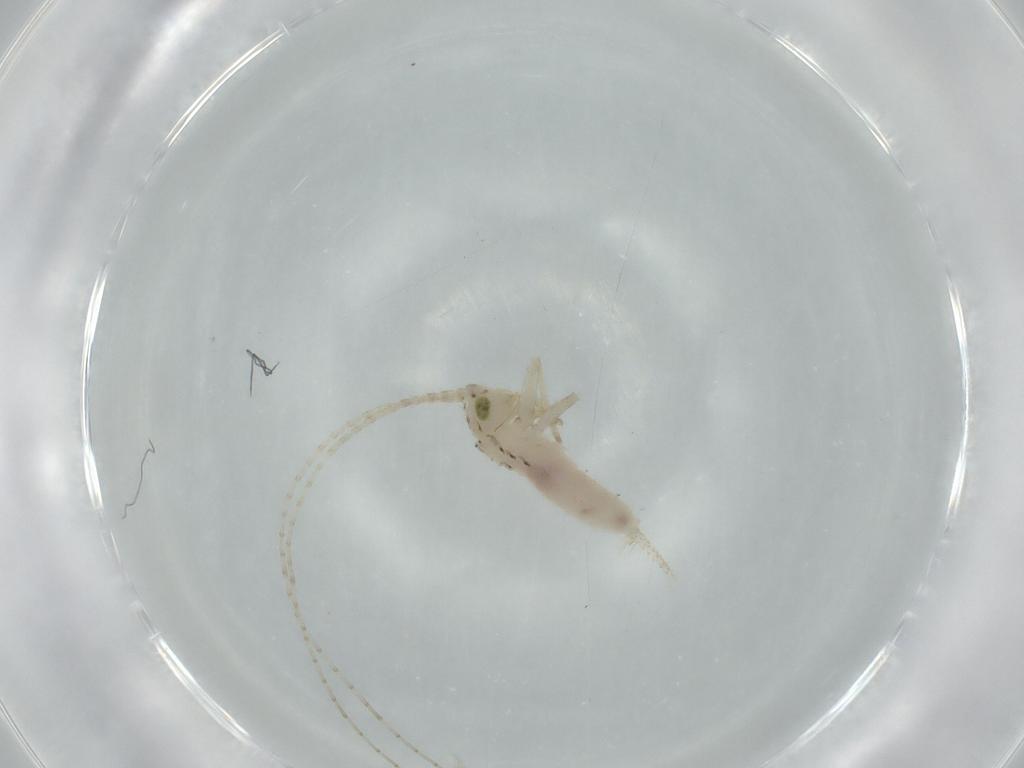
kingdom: Animalia
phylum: Arthropoda
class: Insecta
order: Orthoptera
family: Trigonidiidae
